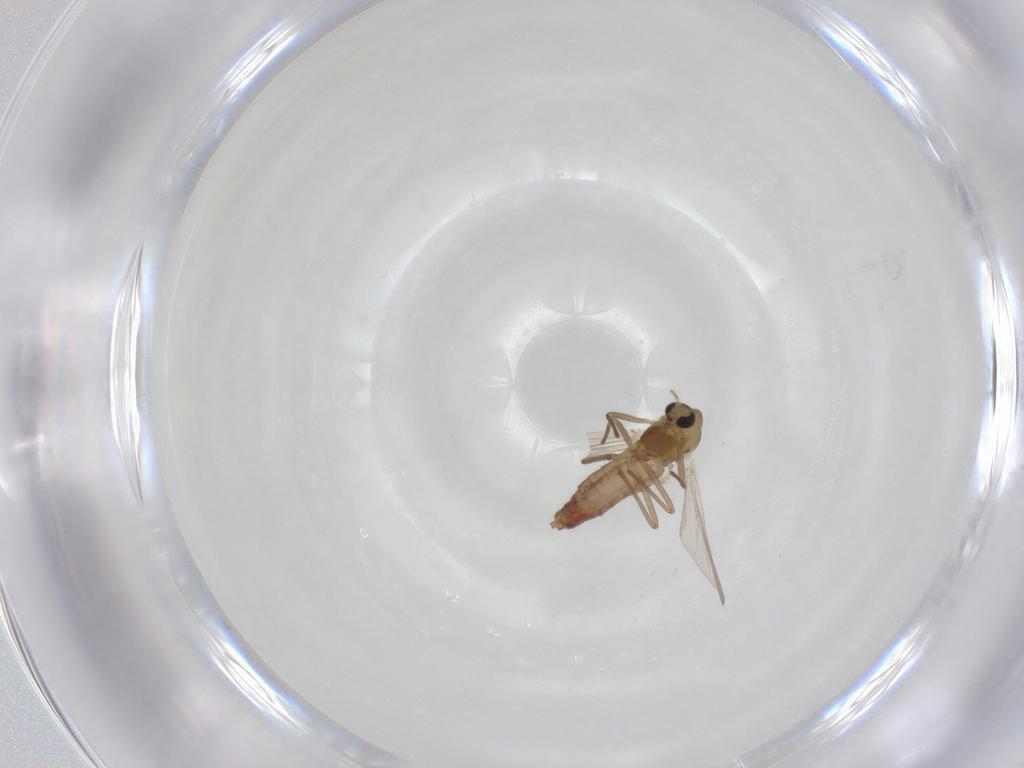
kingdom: Animalia
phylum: Arthropoda
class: Insecta
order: Diptera
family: Chironomidae
